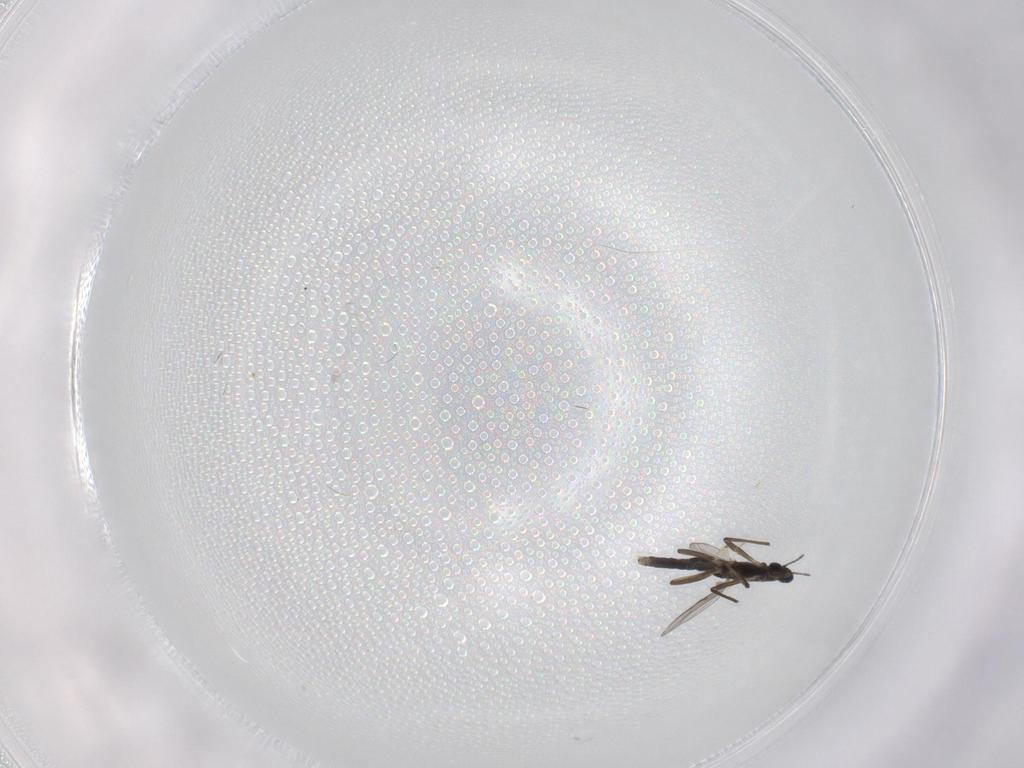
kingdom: Animalia
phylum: Arthropoda
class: Insecta
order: Diptera
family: Chironomidae
